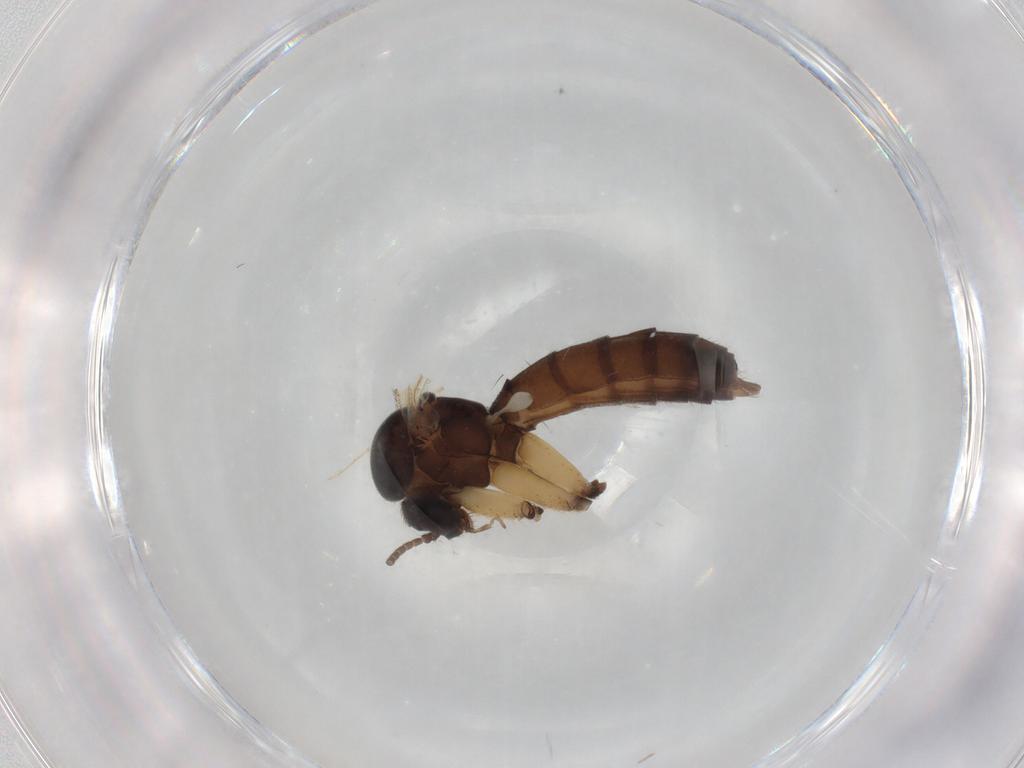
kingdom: Animalia
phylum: Arthropoda
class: Insecta
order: Diptera
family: Mycetophilidae
